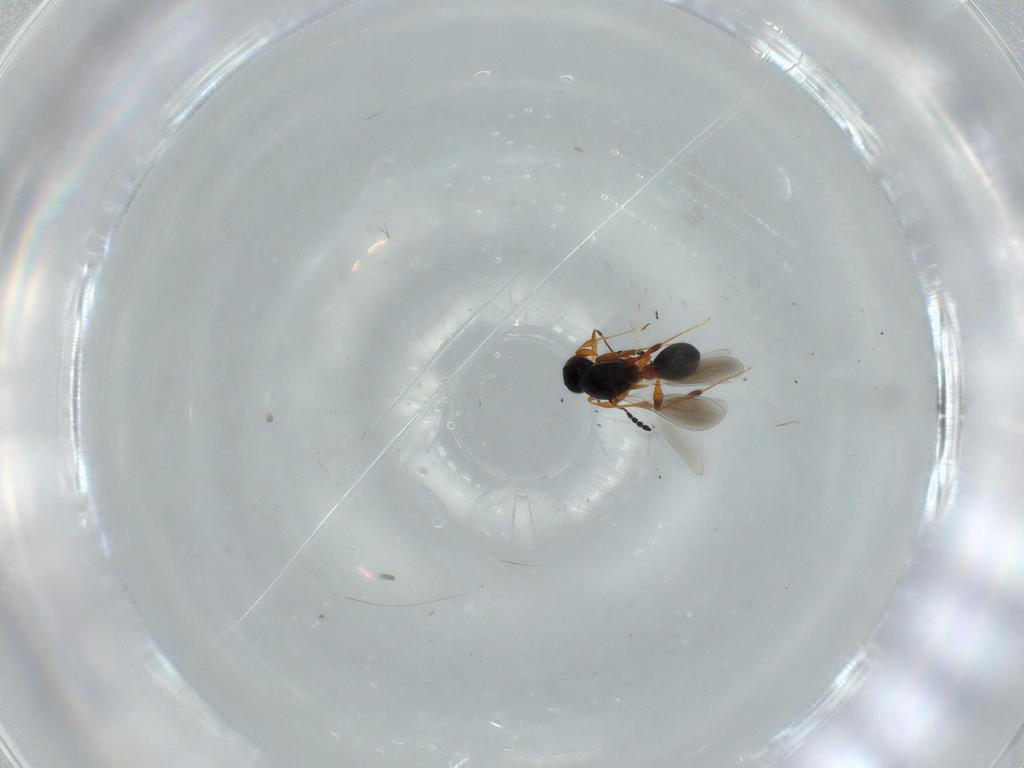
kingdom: Animalia
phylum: Arthropoda
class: Insecta
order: Hymenoptera
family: Platygastridae
